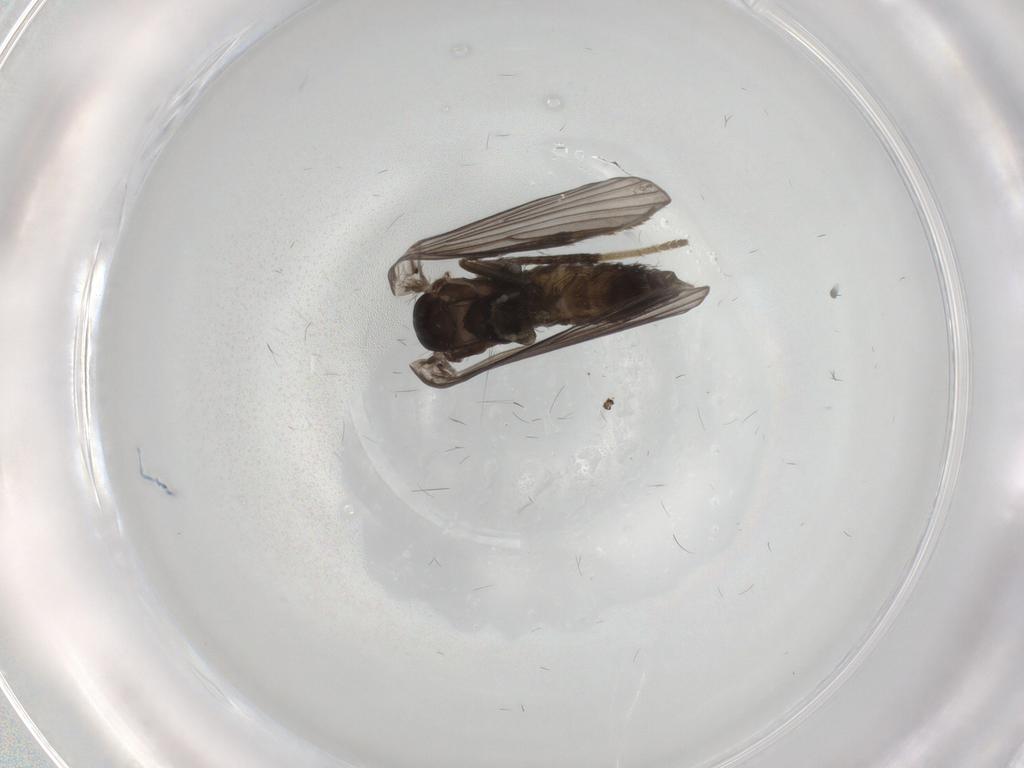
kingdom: Animalia
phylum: Arthropoda
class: Insecta
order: Diptera
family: Psychodidae
